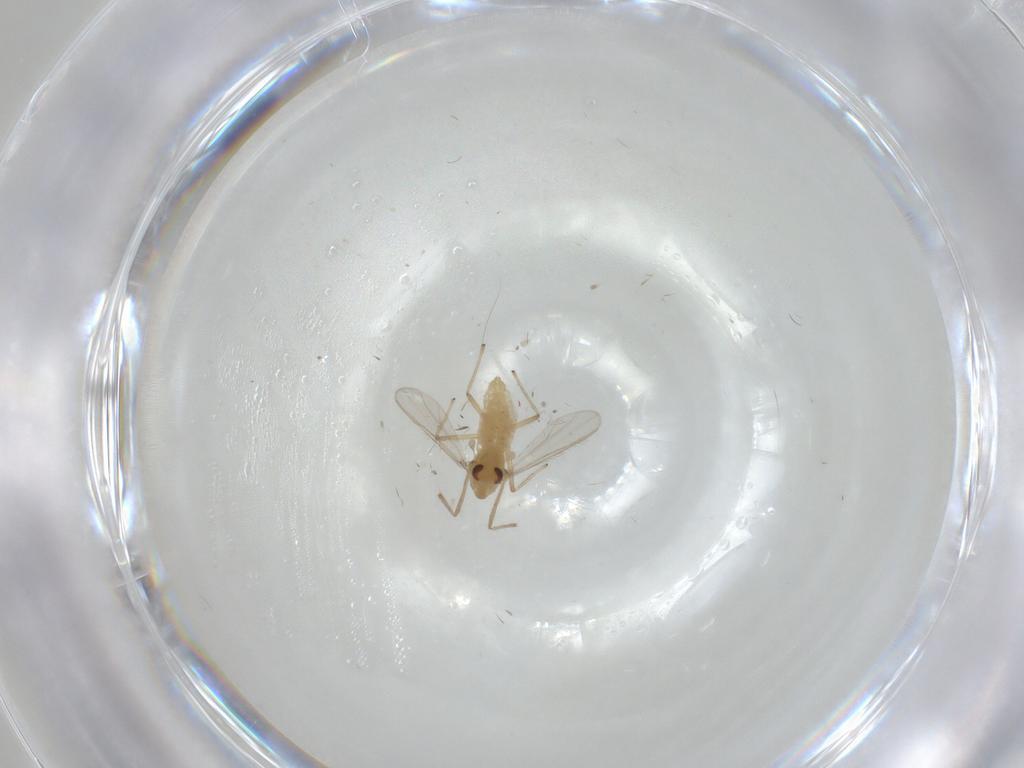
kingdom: Animalia
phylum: Arthropoda
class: Insecta
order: Diptera
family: Chironomidae
